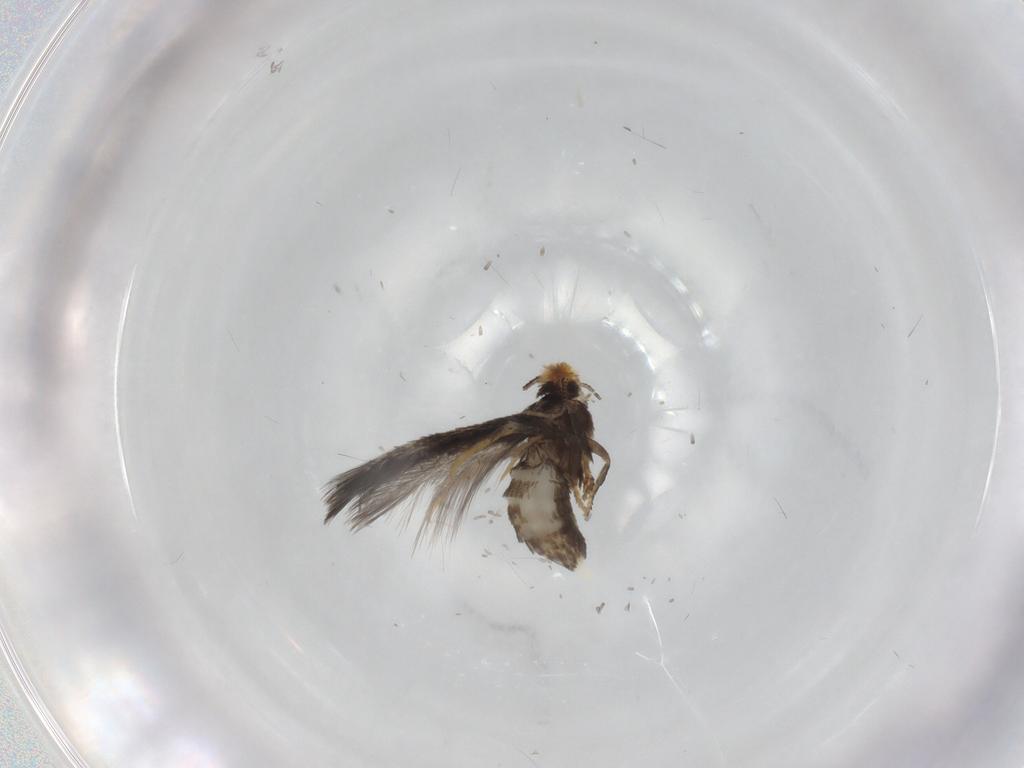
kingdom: Animalia
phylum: Arthropoda
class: Insecta
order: Lepidoptera
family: Nepticulidae
